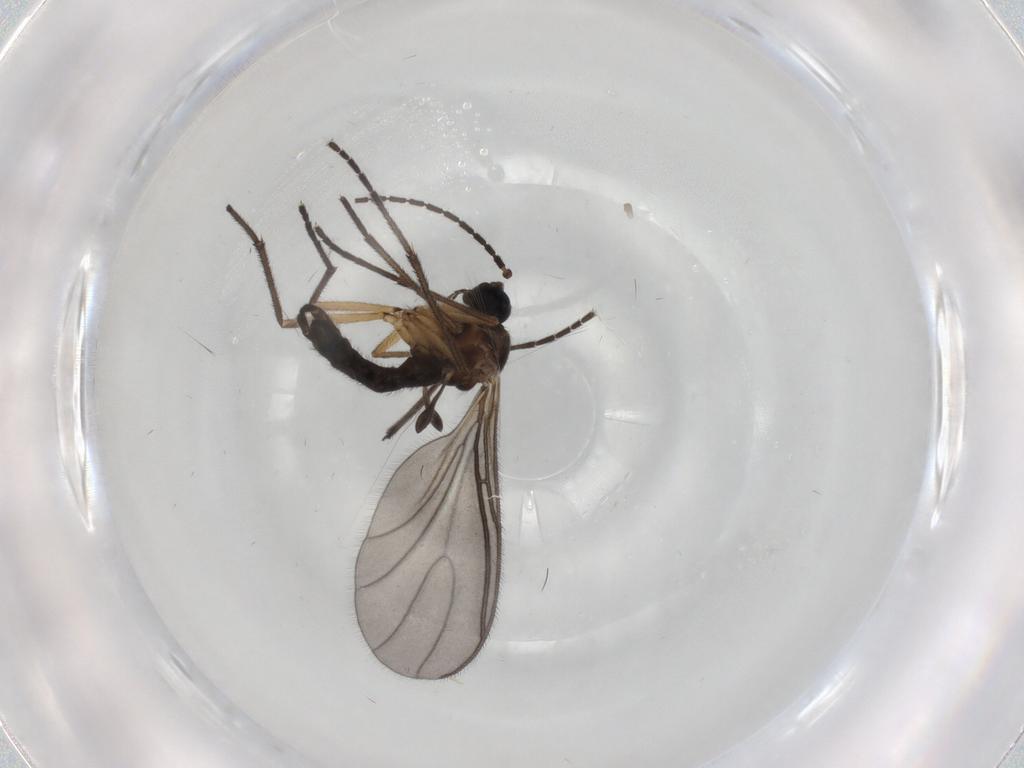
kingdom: Animalia
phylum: Arthropoda
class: Insecta
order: Diptera
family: Sciaridae
